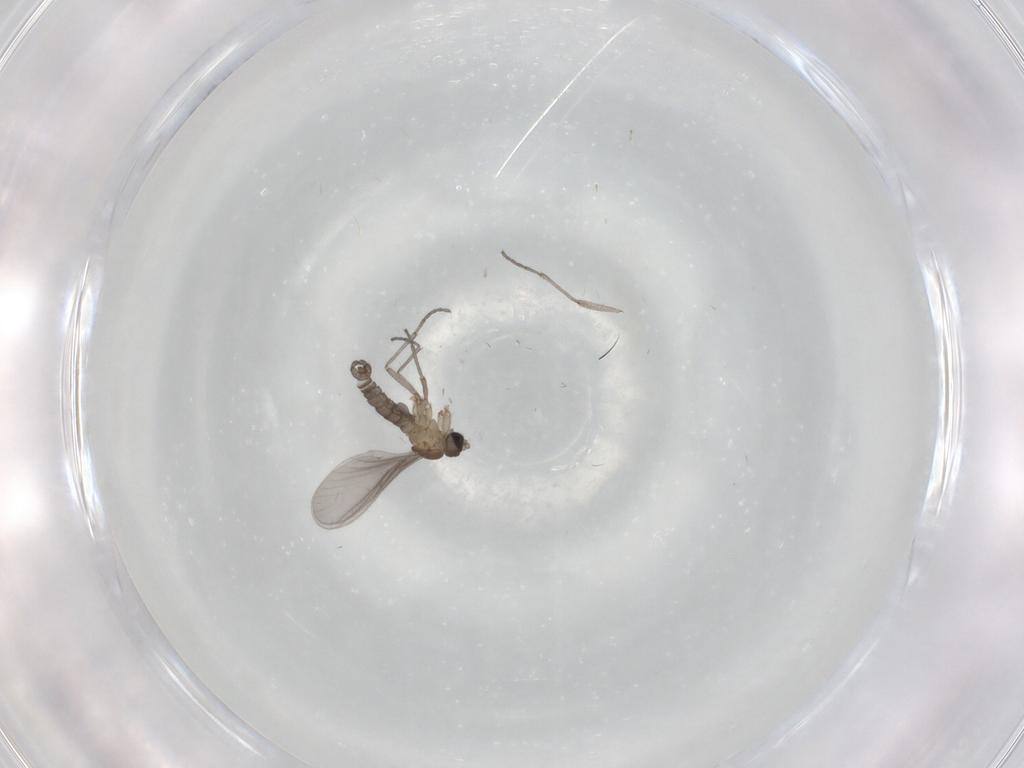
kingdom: Animalia
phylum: Arthropoda
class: Insecta
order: Diptera
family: Sciaridae
